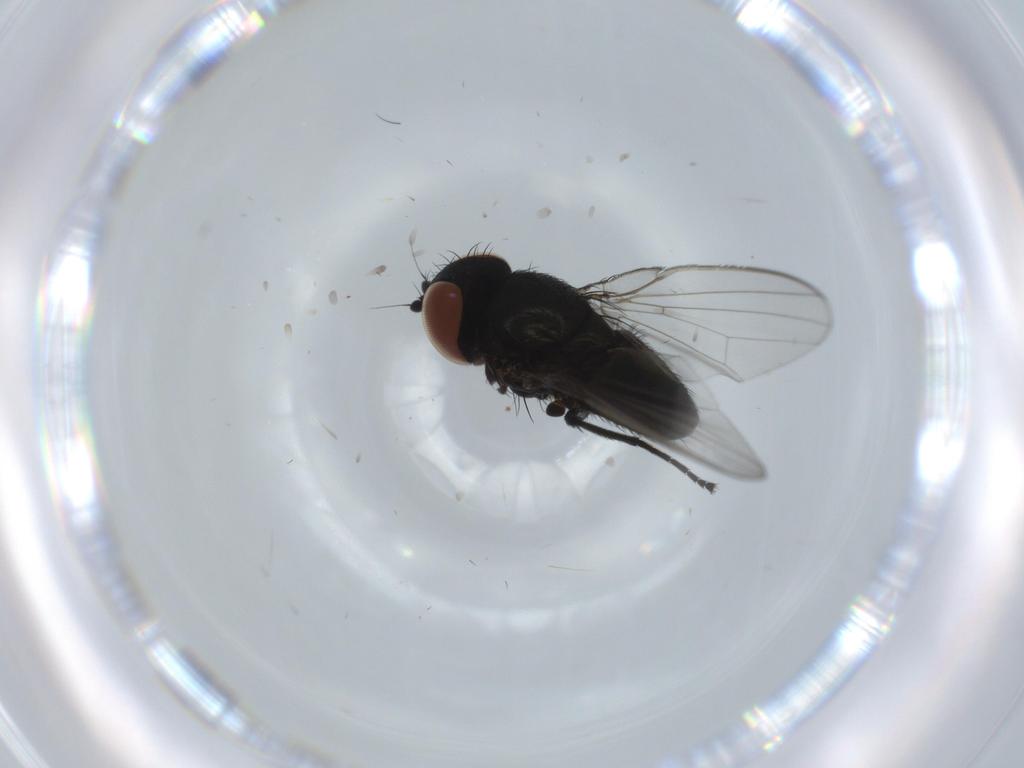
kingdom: Animalia
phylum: Arthropoda
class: Insecta
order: Diptera
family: Milichiidae
